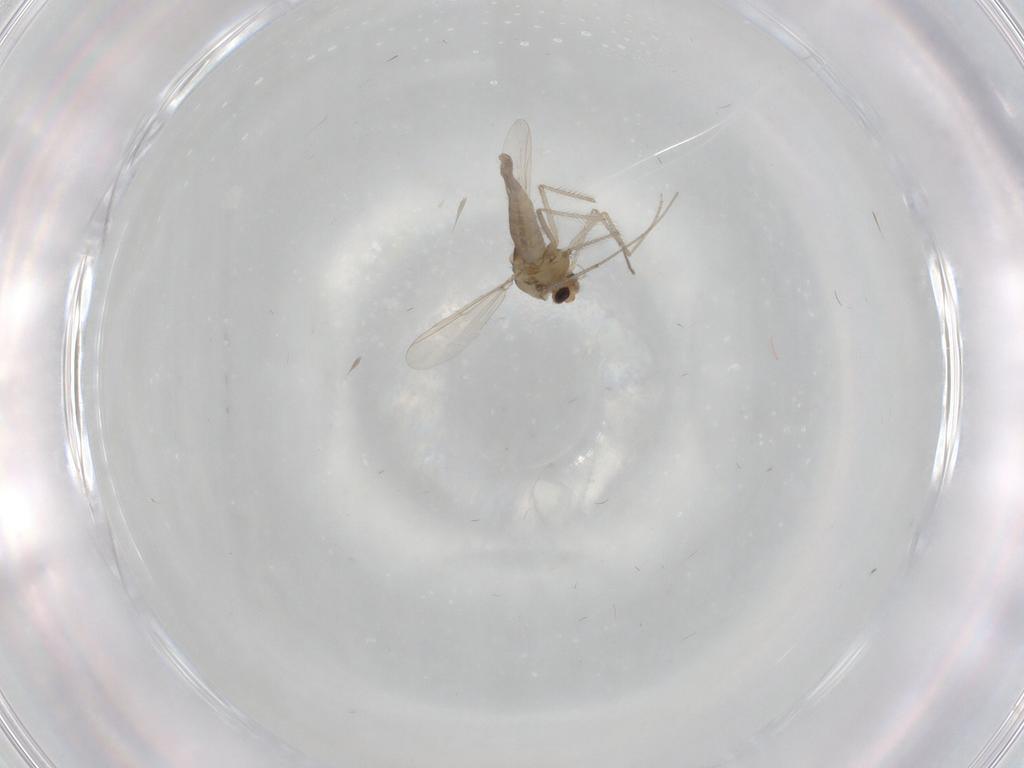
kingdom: Animalia
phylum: Arthropoda
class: Insecta
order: Diptera
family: Chironomidae
